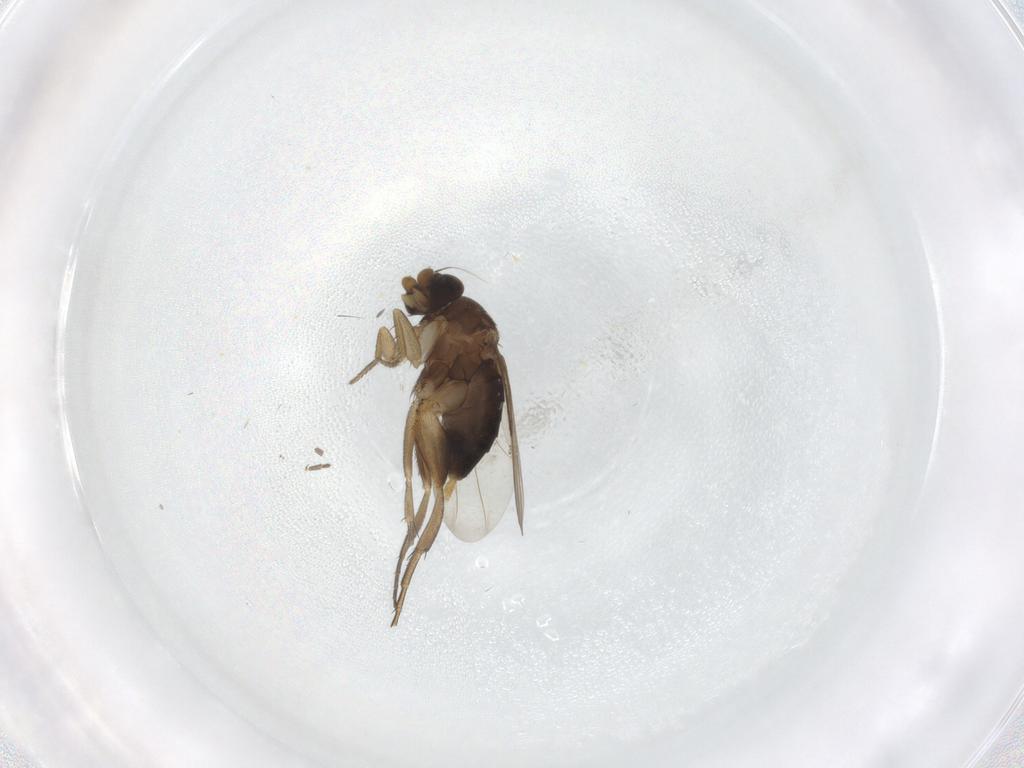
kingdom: Animalia
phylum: Arthropoda
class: Insecta
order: Diptera
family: Phoridae
